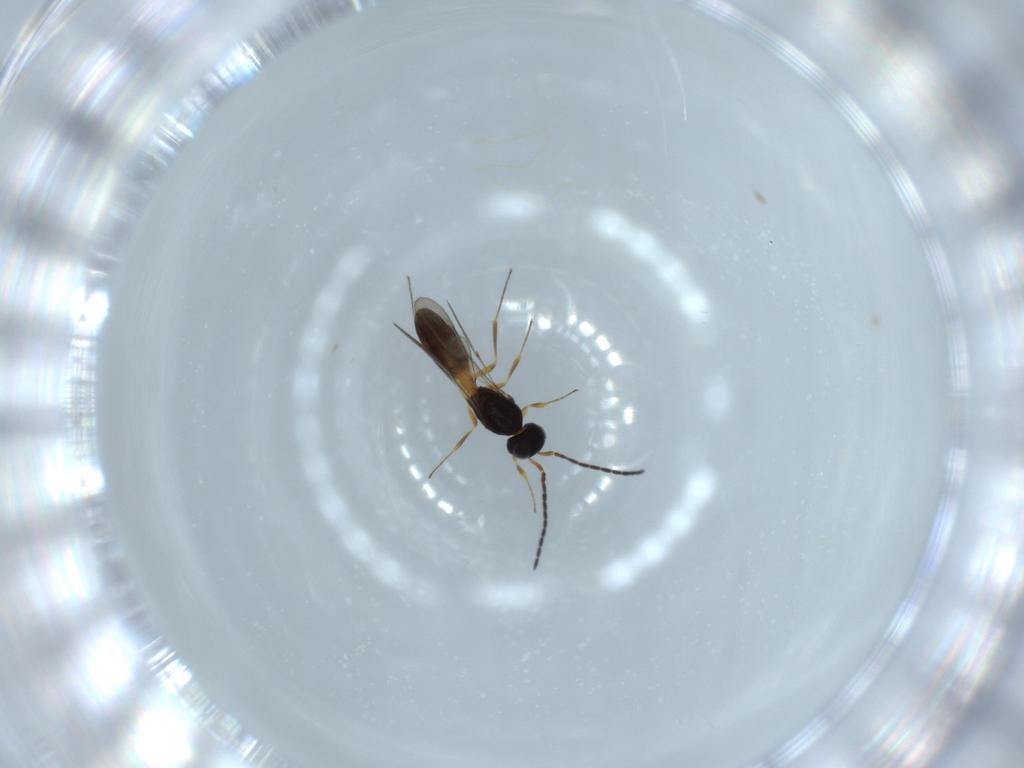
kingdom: Animalia
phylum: Arthropoda
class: Insecta
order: Hymenoptera
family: Scelionidae
